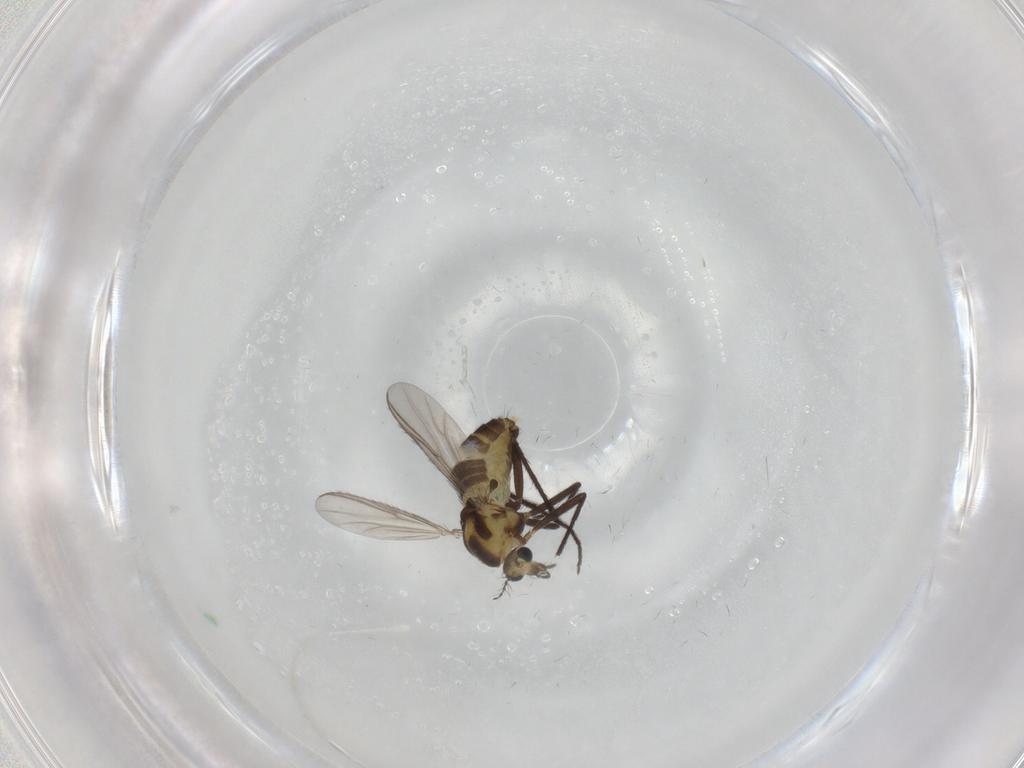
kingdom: Animalia
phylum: Arthropoda
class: Insecta
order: Diptera
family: Chironomidae
